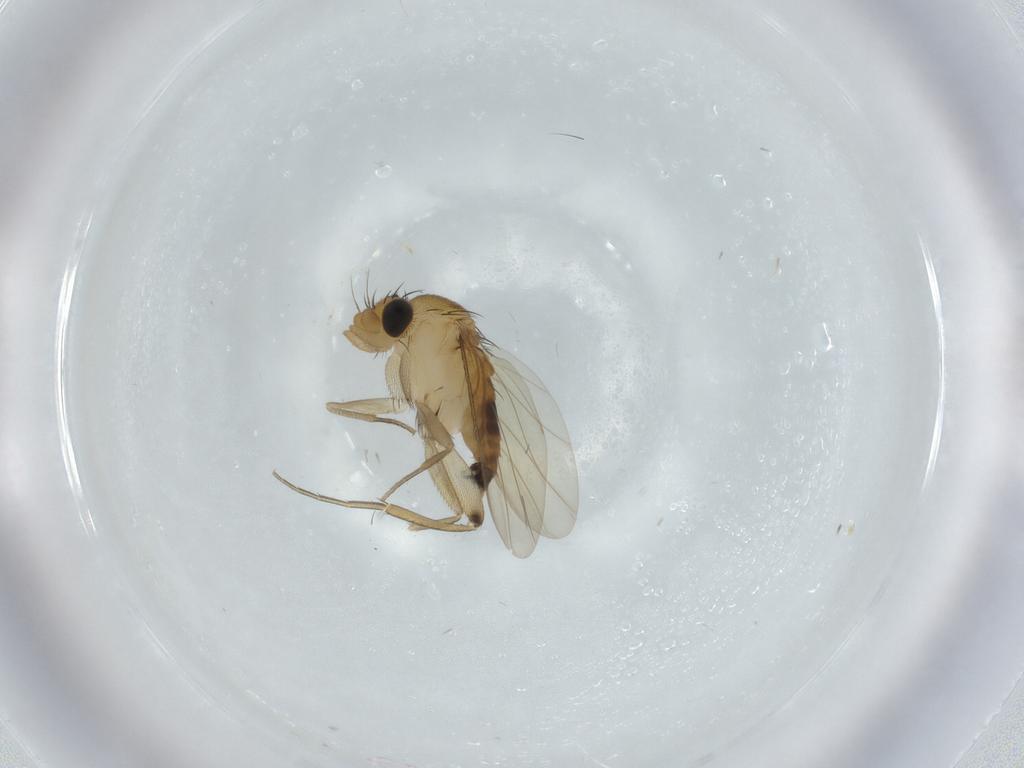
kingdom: Animalia
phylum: Arthropoda
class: Insecta
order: Diptera
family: Phoridae
